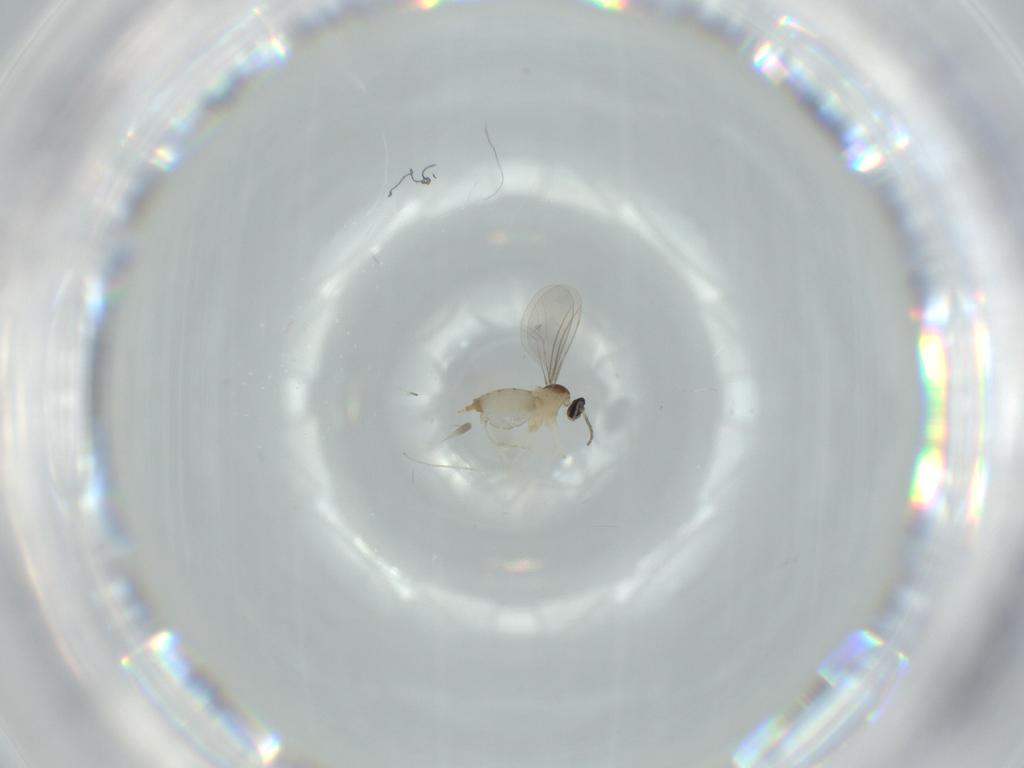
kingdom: Animalia
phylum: Arthropoda
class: Insecta
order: Diptera
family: Cecidomyiidae
